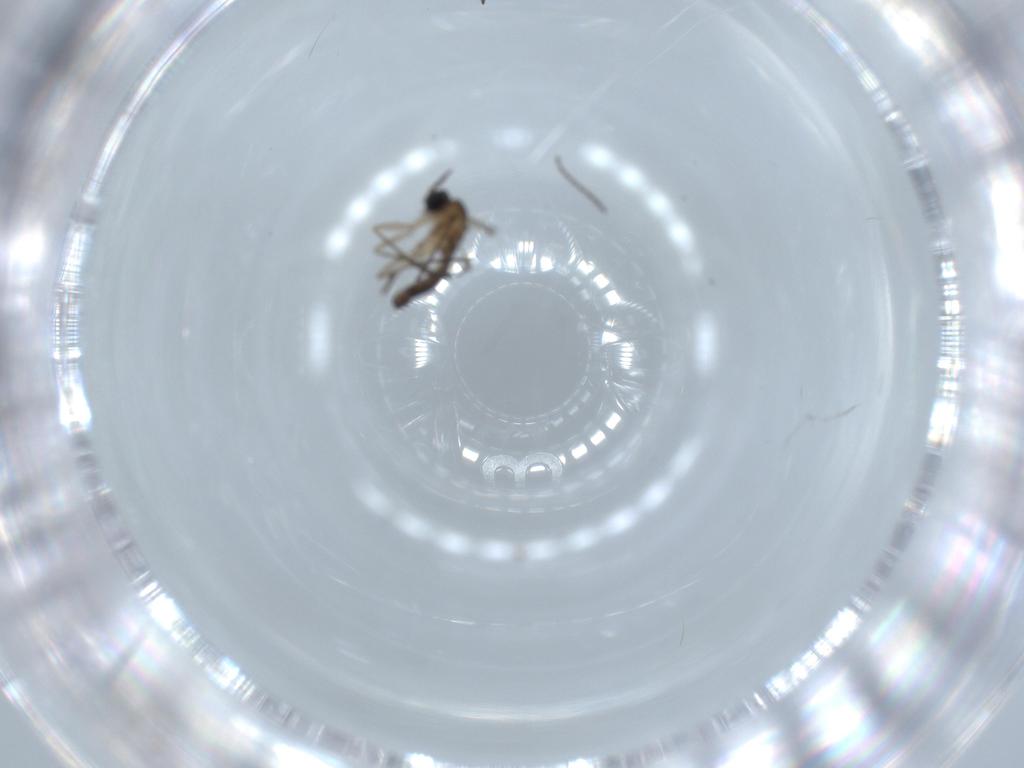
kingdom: Animalia
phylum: Arthropoda
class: Insecta
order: Diptera
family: Sciaridae
